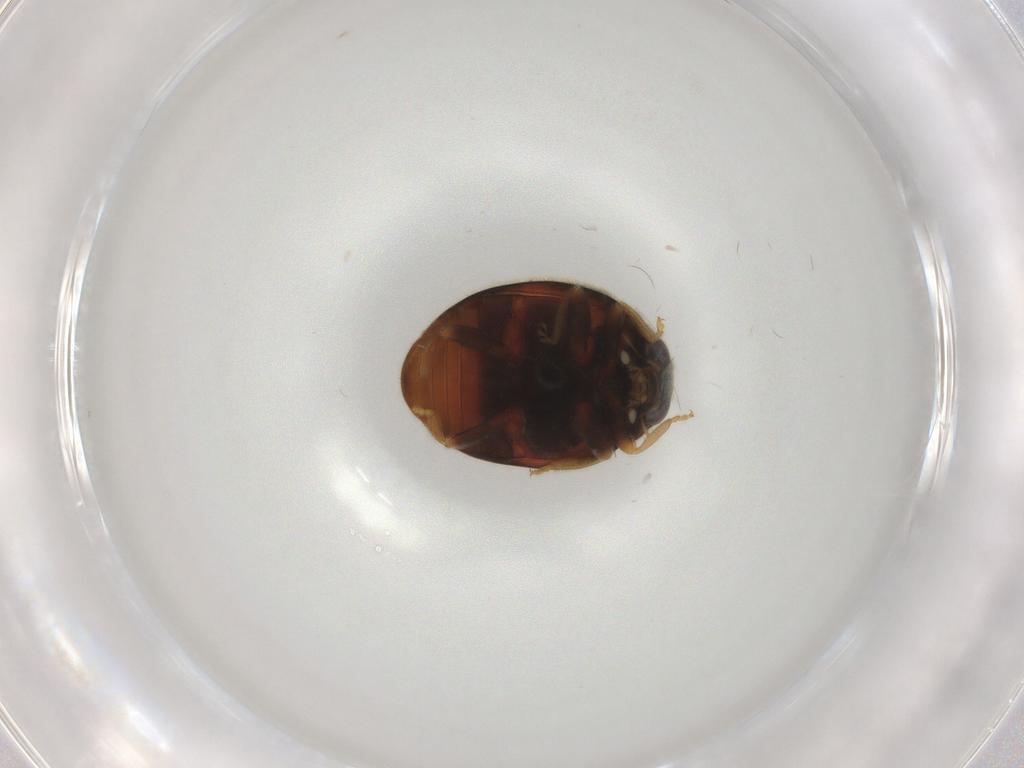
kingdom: Animalia
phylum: Arthropoda
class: Insecta
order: Coleoptera
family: Coccinellidae
